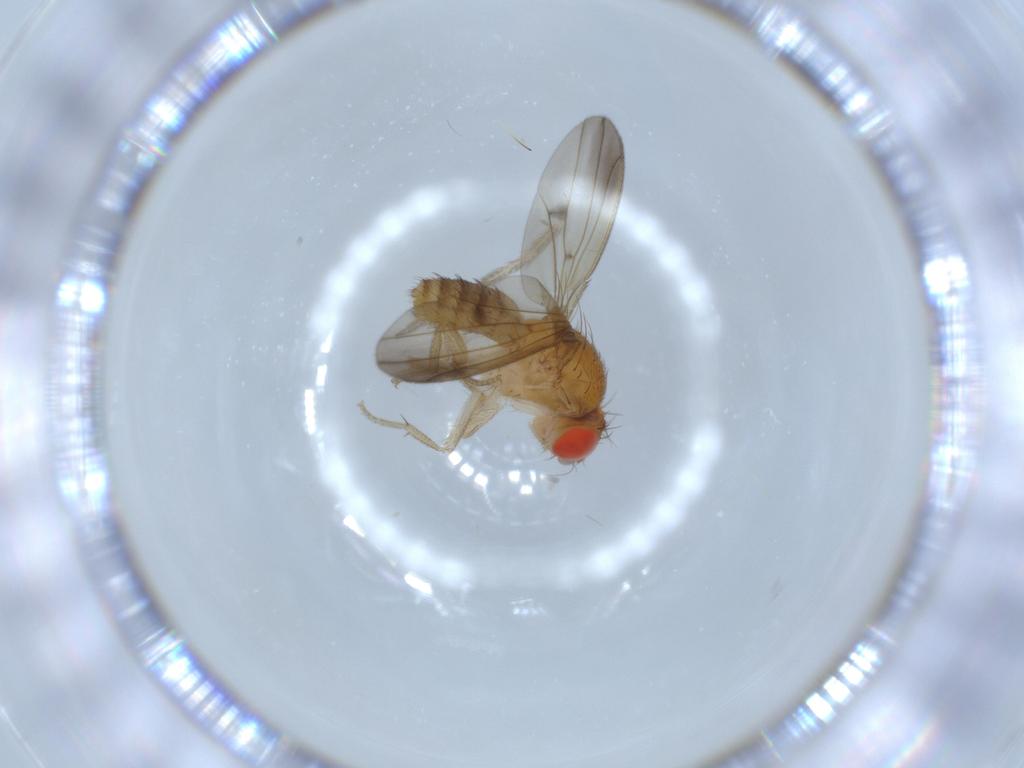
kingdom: Animalia
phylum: Arthropoda
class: Insecta
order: Diptera
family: Drosophilidae
